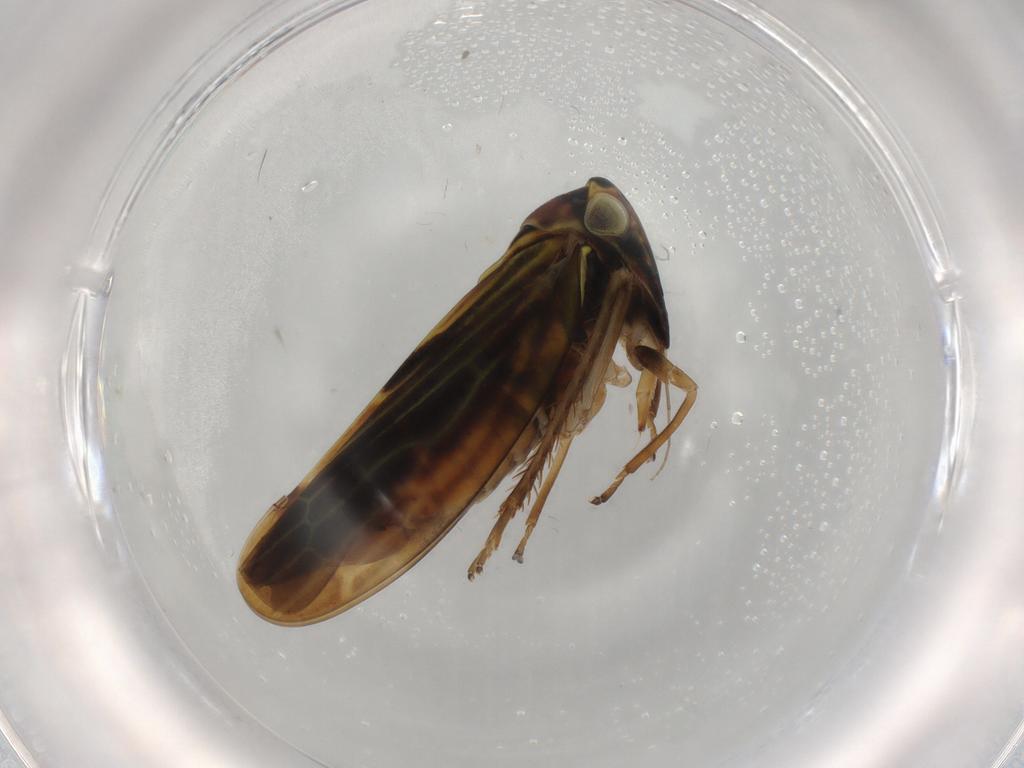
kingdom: Animalia
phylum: Arthropoda
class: Insecta
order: Hemiptera
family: Cicadellidae
